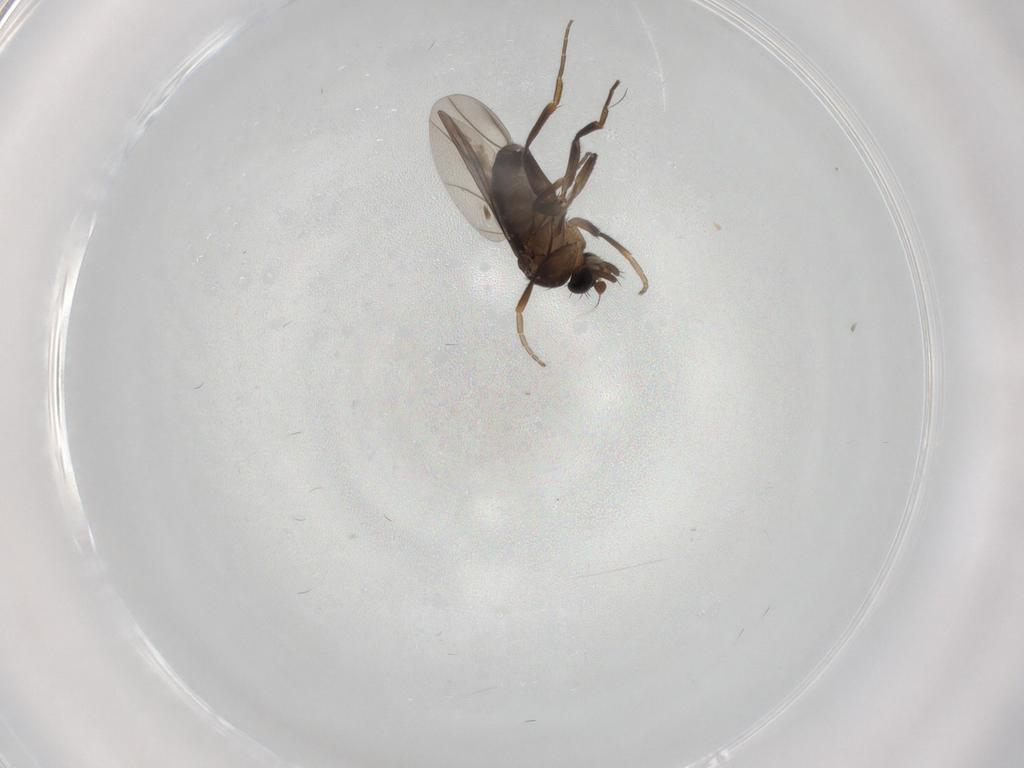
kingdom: Animalia
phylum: Arthropoda
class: Insecta
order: Diptera
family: Phoridae
